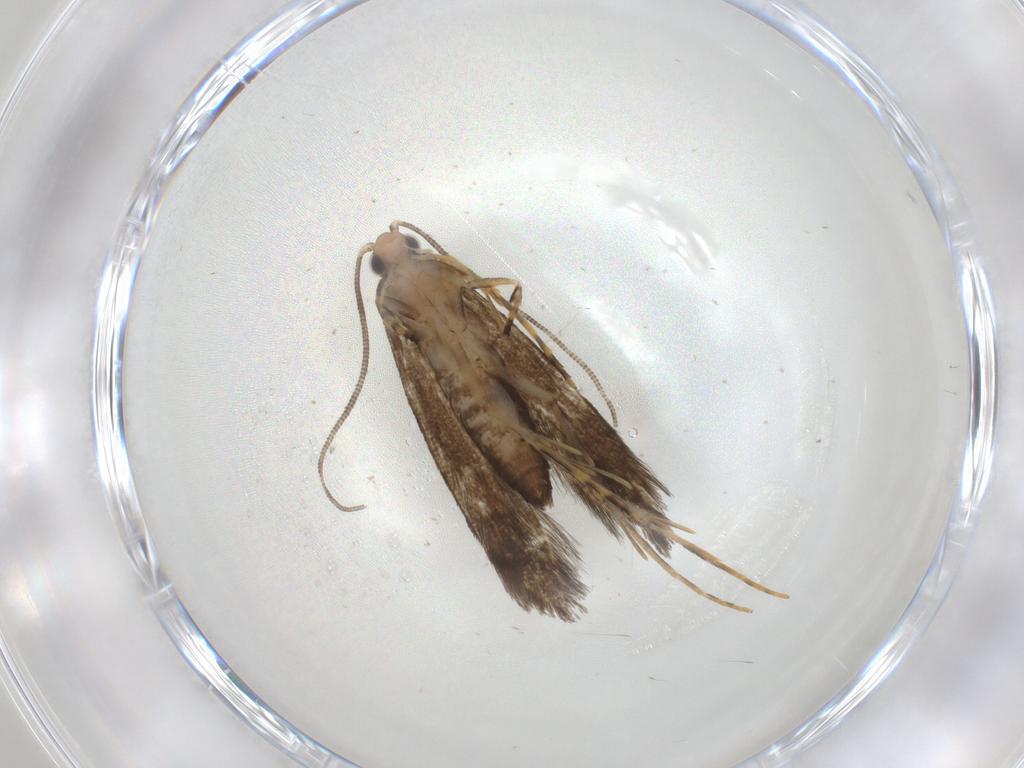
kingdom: Animalia
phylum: Arthropoda
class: Insecta
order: Lepidoptera
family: Tineidae
